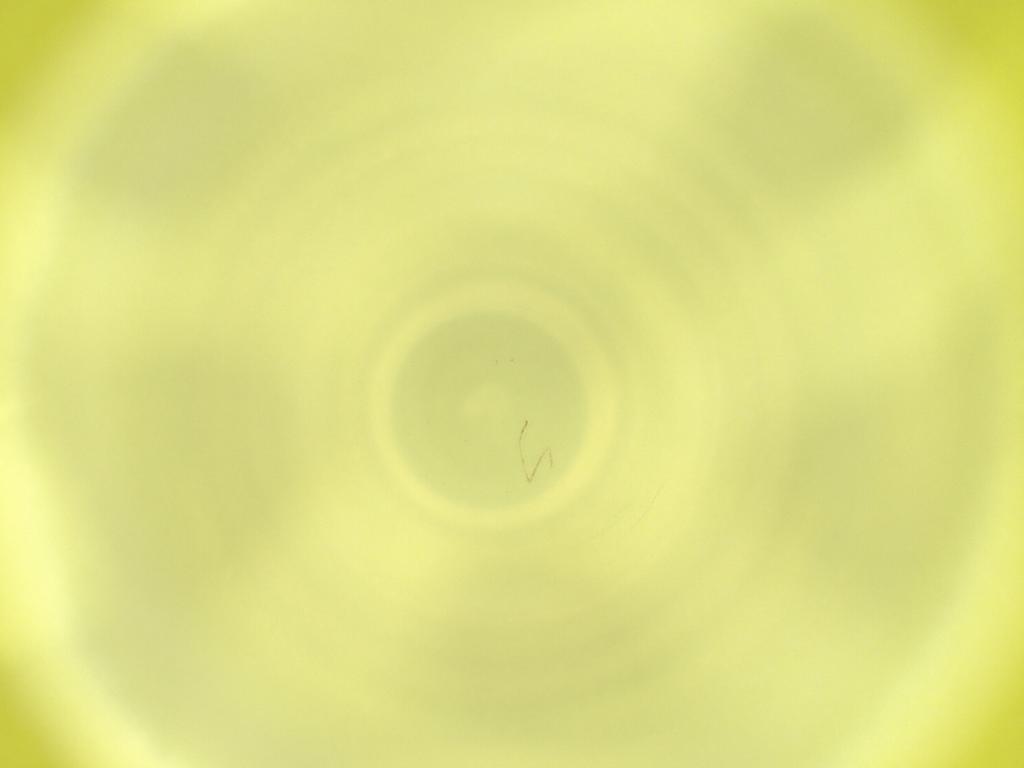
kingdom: Animalia
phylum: Arthropoda
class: Insecta
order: Diptera
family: Cecidomyiidae
